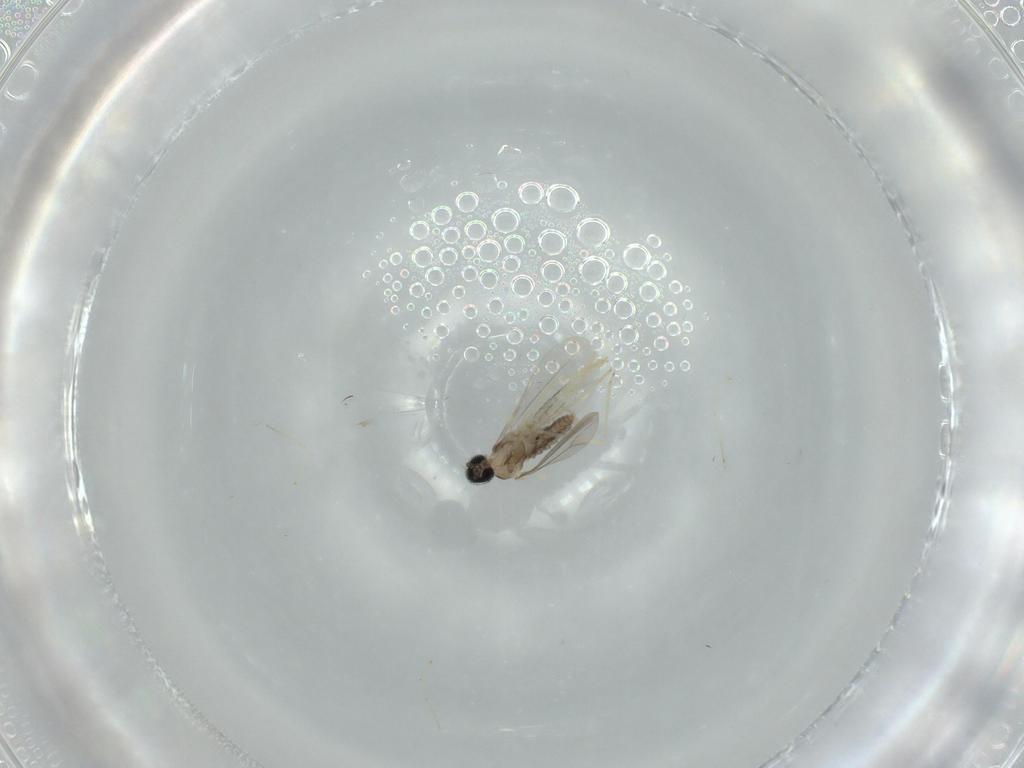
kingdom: Animalia
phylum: Arthropoda
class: Insecta
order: Diptera
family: Cecidomyiidae
